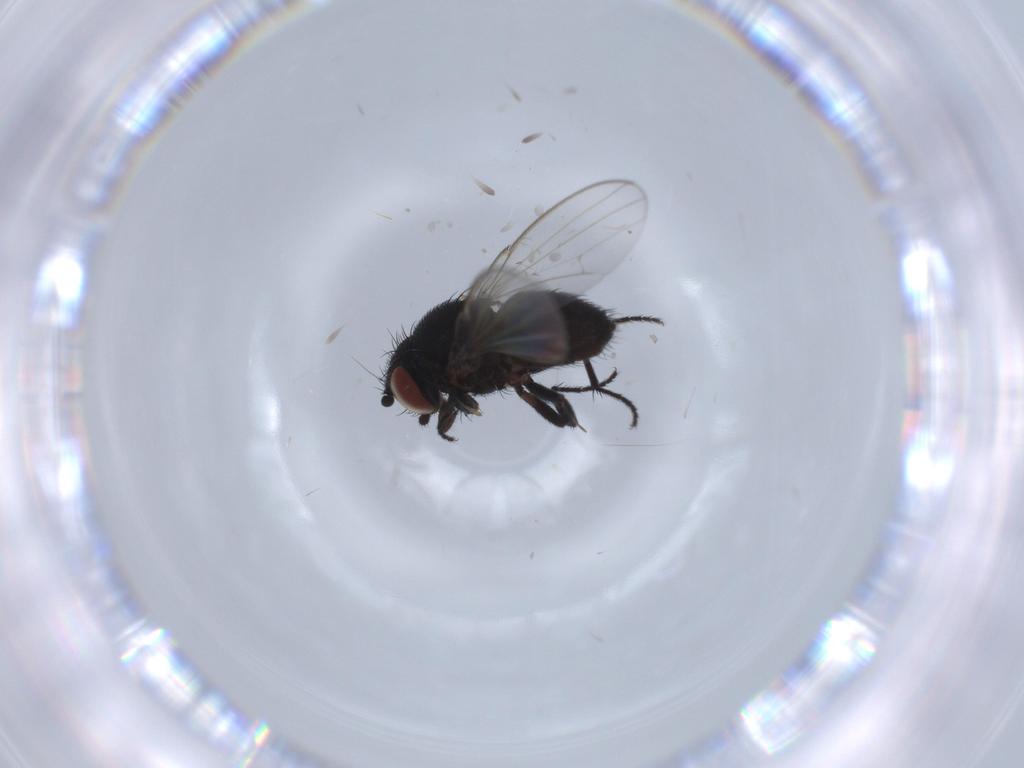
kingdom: Animalia
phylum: Arthropoda
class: Insecta
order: Diptera
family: Milichiidae
